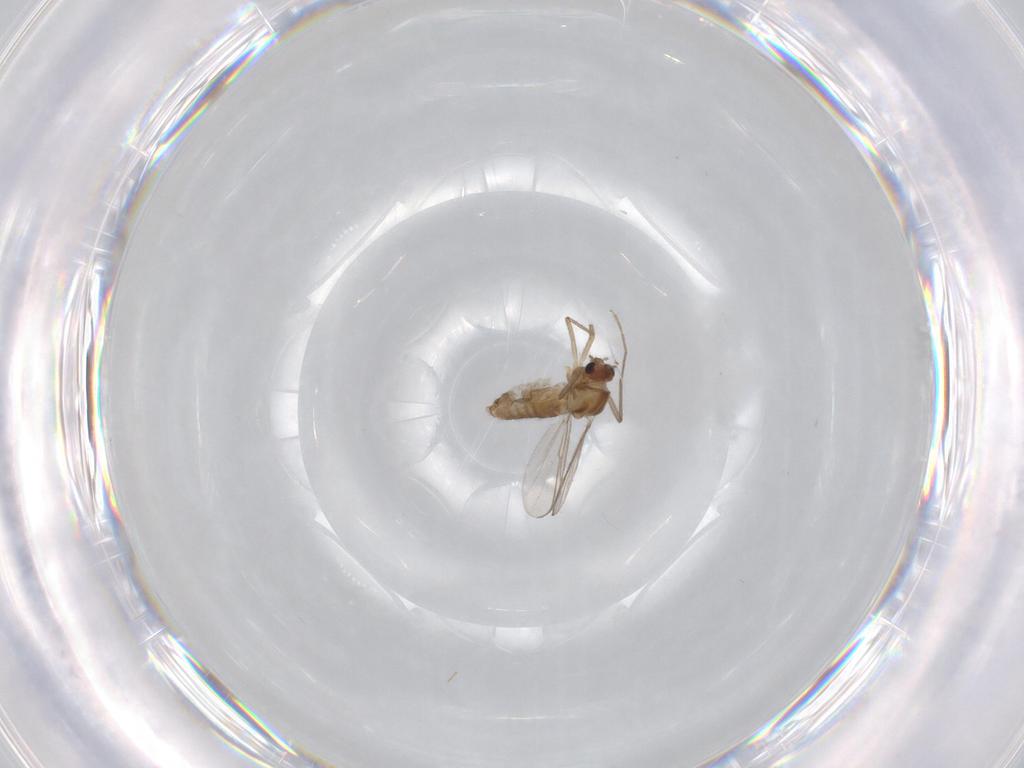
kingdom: Animalia
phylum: Arthropoda
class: Insecta
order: Diptera
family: Chironomidae
